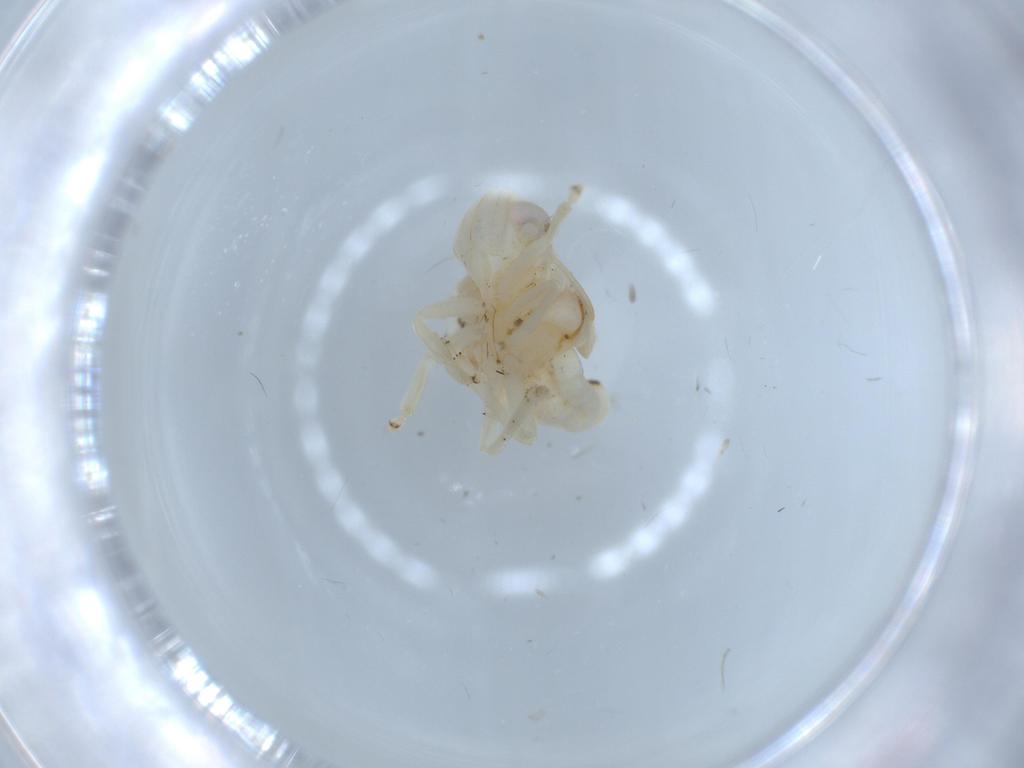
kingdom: Animalia
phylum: Arthropoda
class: Insecta
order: Hemiptera
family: Nogodinidae
